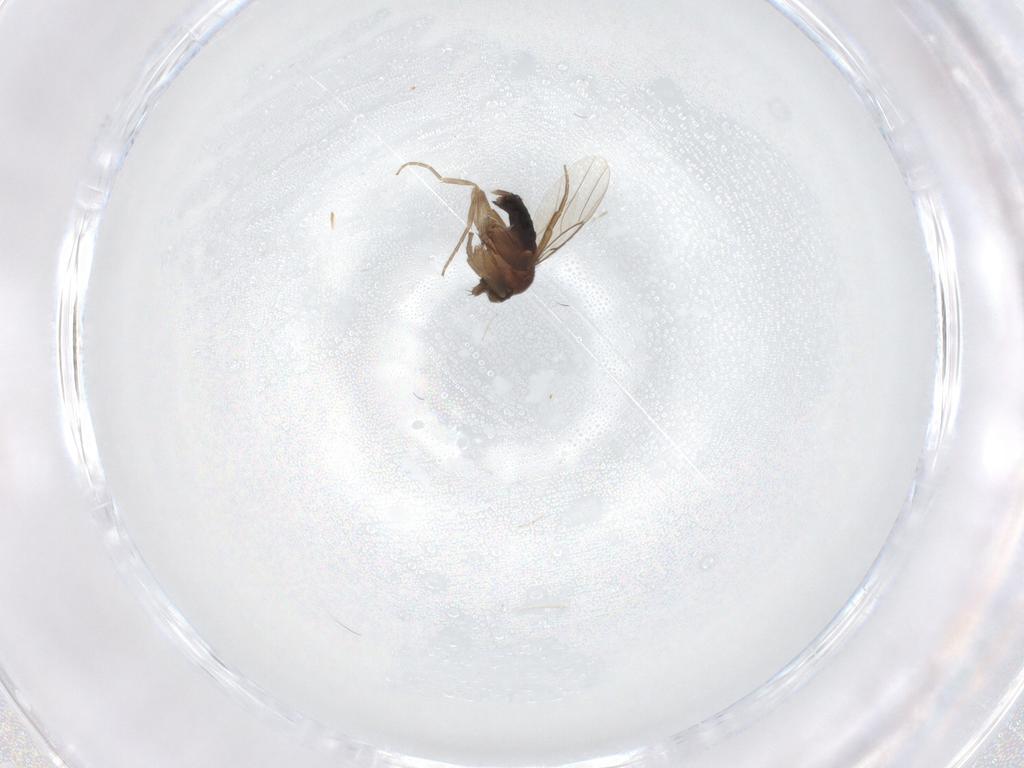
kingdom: Animalia
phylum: Arthropoda
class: Insecta
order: Diptera
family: Phoridae
